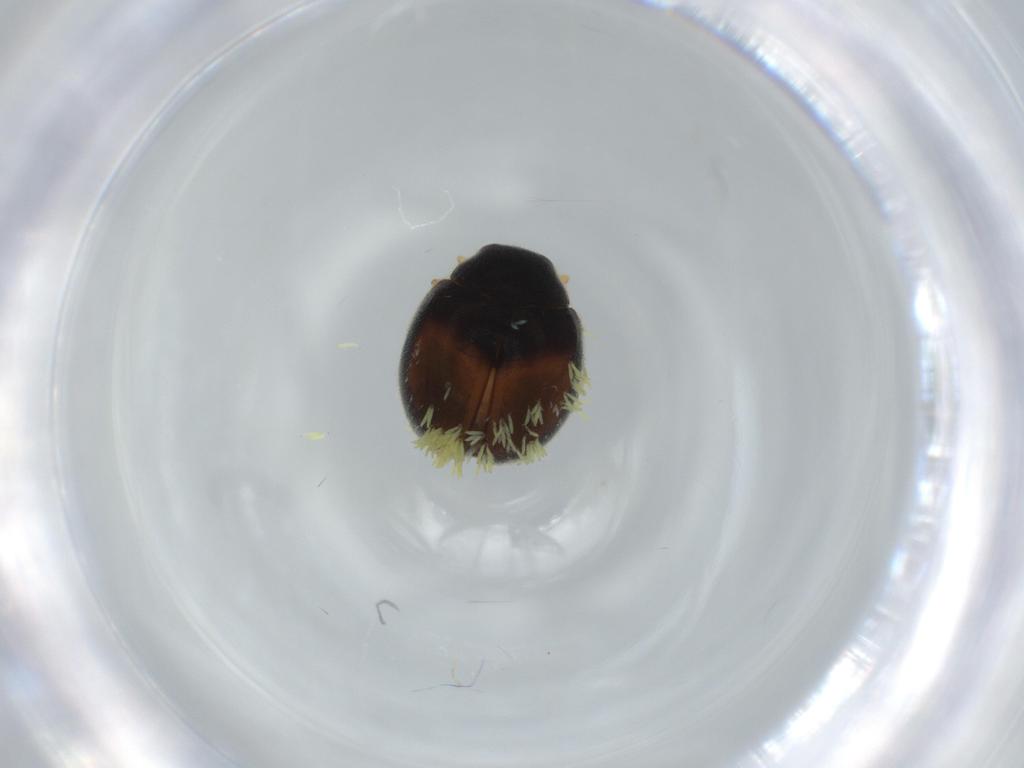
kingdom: Animalia
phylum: Arthropoda
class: Insecta
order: Coleoptera
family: Coccinellidae
